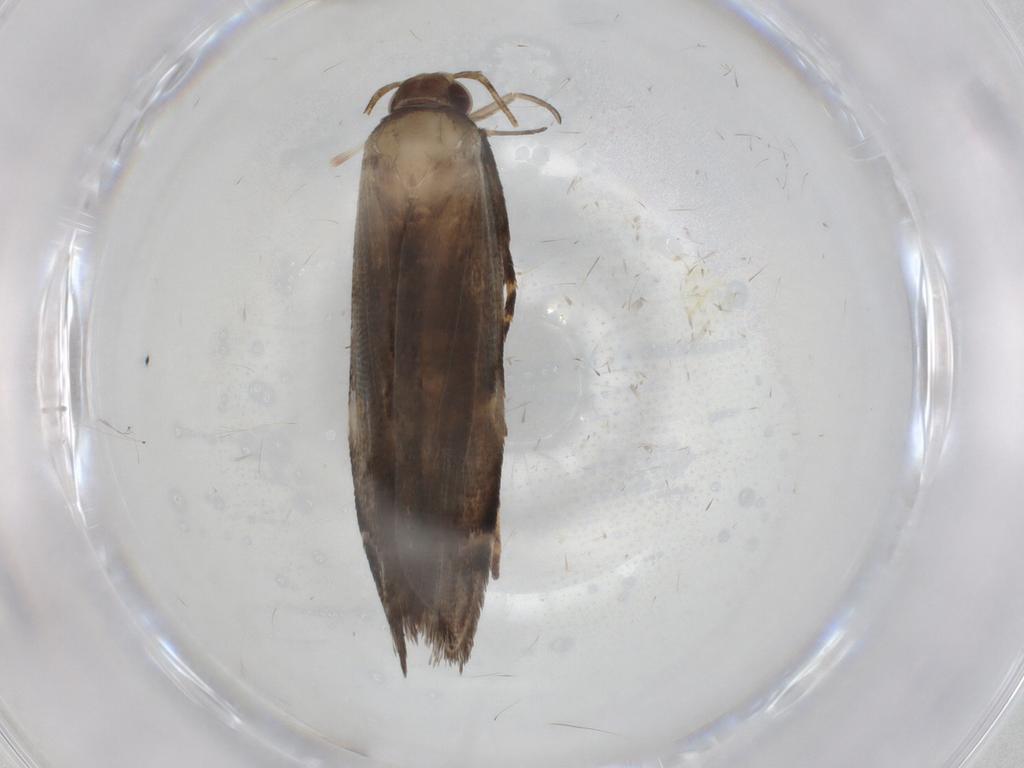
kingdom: Animalia
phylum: Arthropoda
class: Insecta
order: Lepidoptera
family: Gelechiidae
